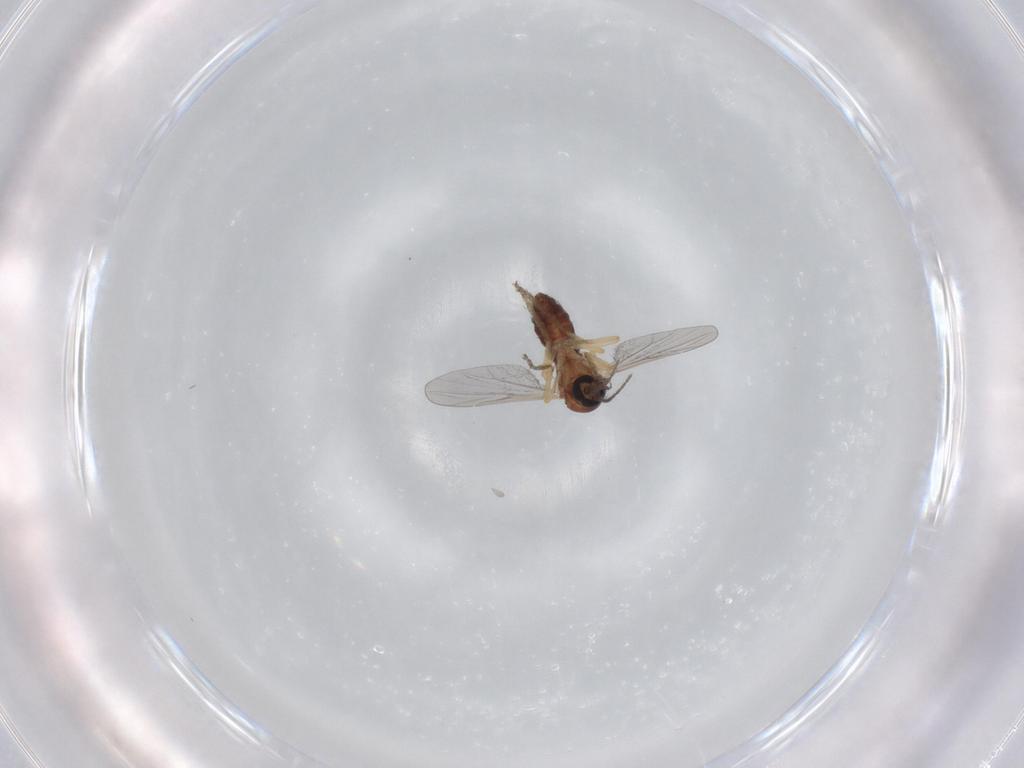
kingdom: Animalia
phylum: Arthropoda
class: Insecta
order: Diptera
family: Ceratopogonidae
